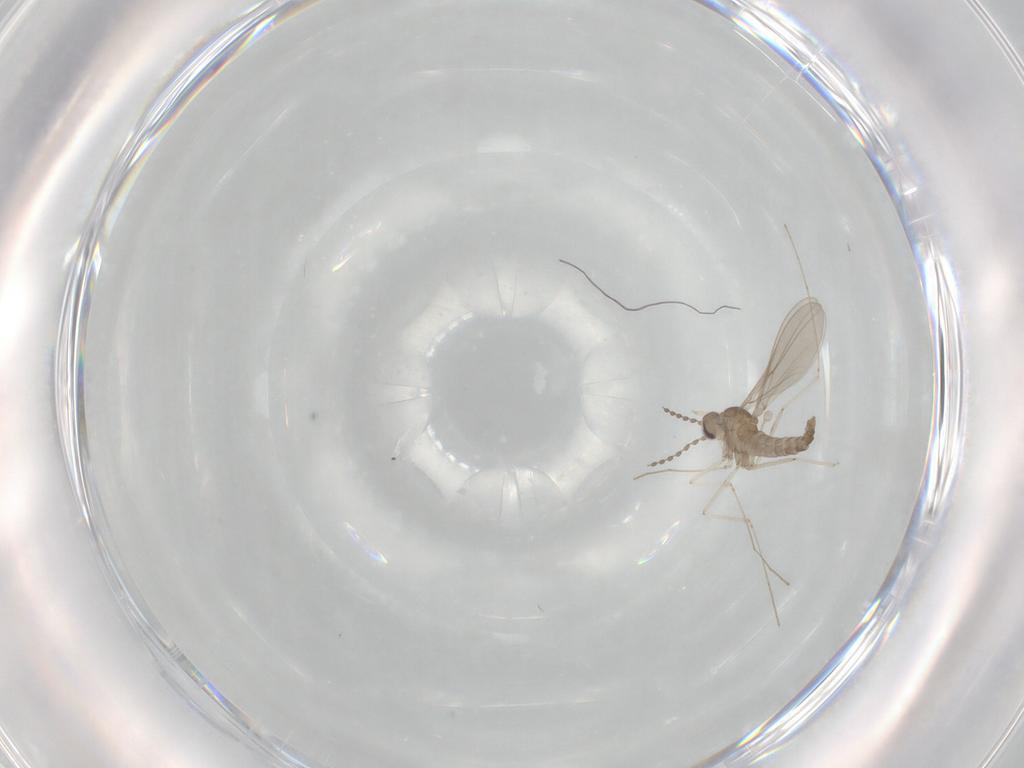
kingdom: Animalia
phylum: Arthropoda
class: Insecta
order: Diptera
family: Cecidomyiidae
